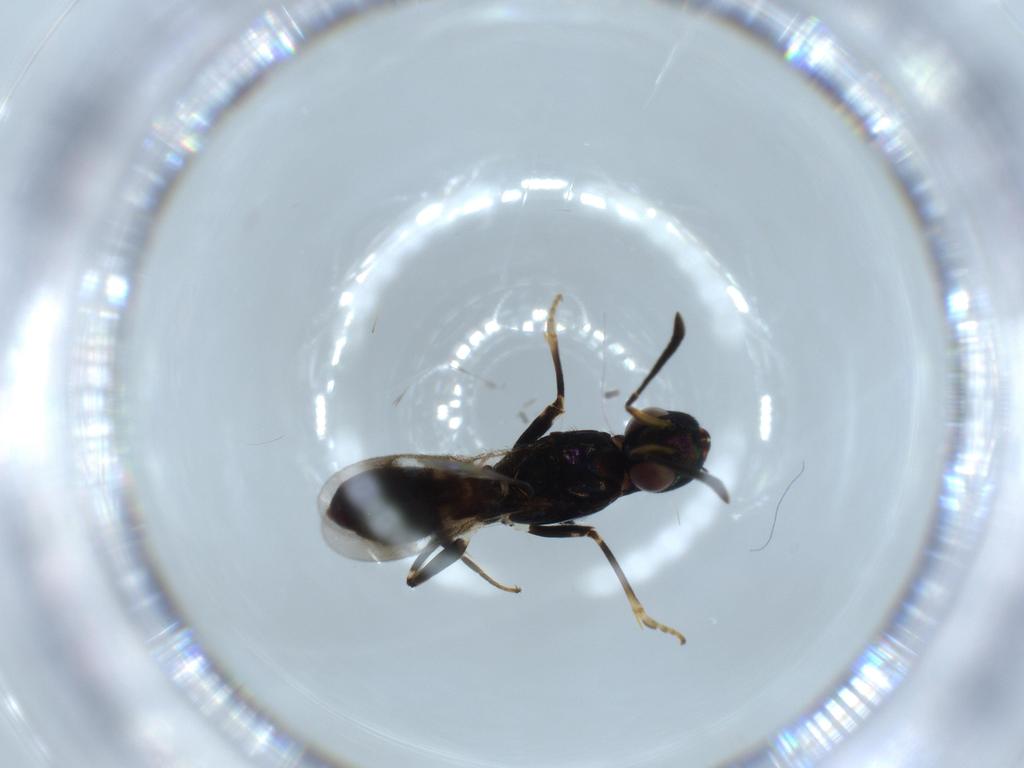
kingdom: Animalia
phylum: Arthropoda
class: Insecta
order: Hymenoptera
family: Eupelmidae
